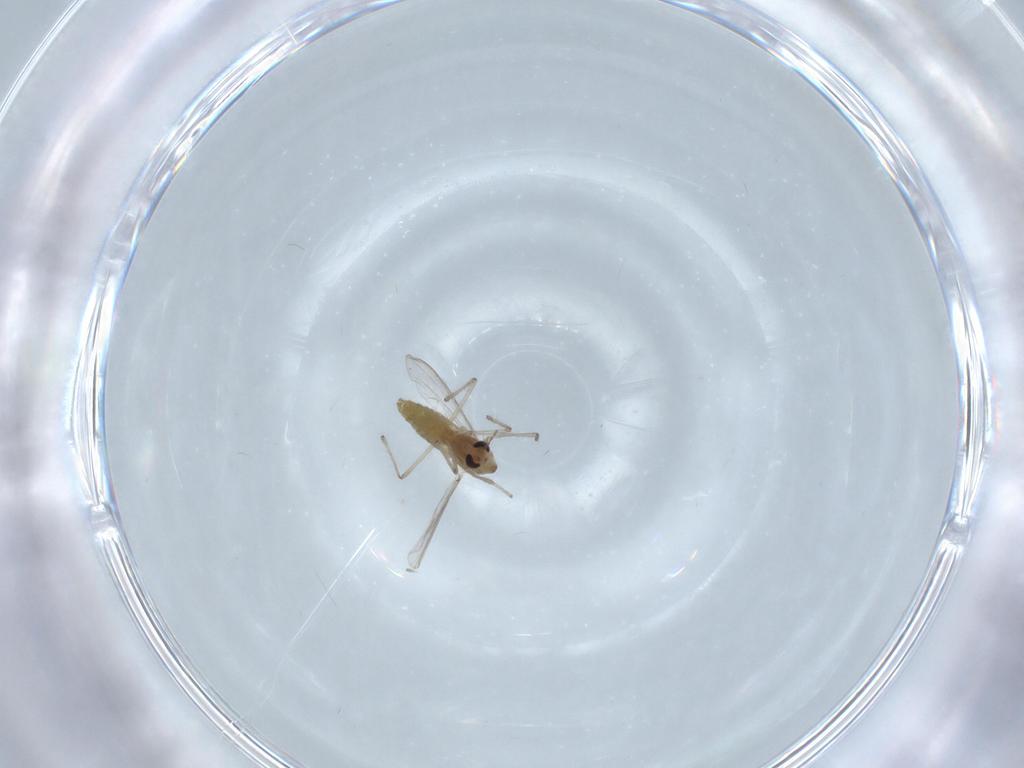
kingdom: Animalia
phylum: Arthropoda
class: Insecta
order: Diptera
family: Chironomidae
